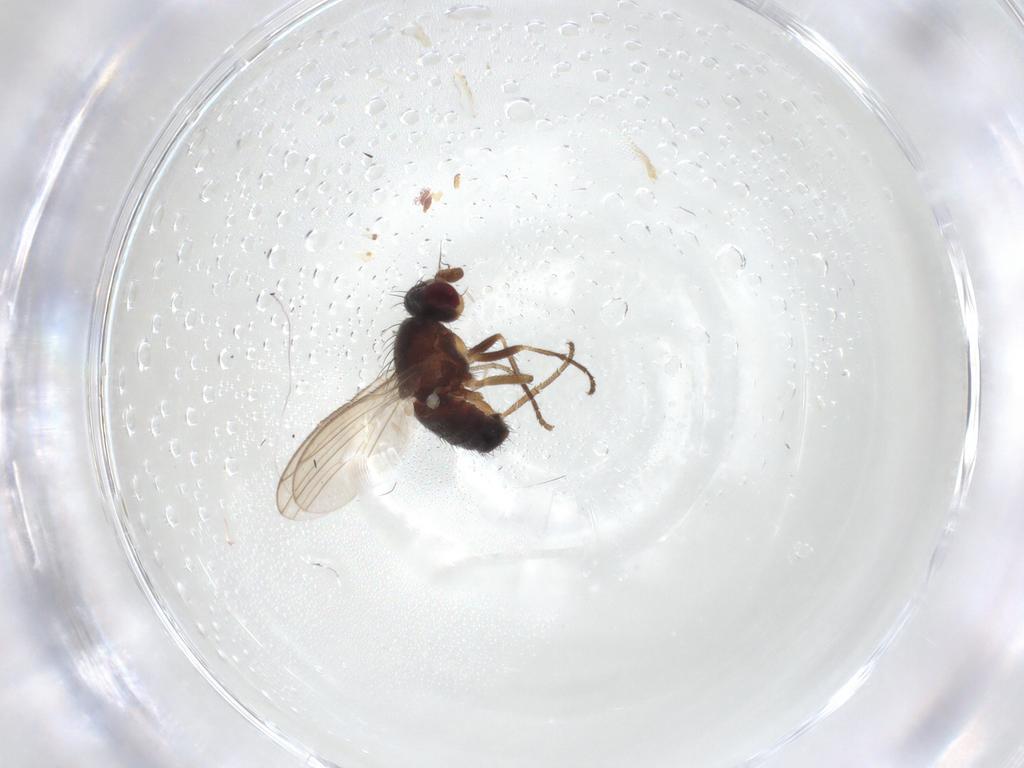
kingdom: Animalia
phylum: Arthropoda
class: Insecta
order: Diptera
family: Heleomyzidae
